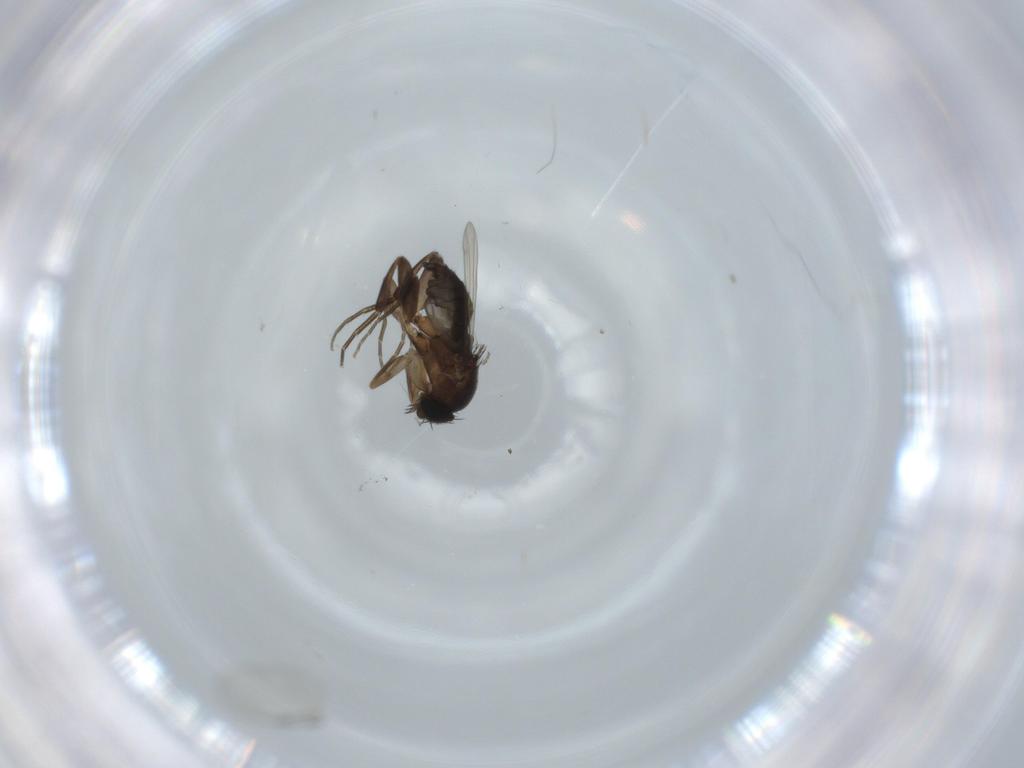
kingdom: Animalia
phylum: Arthropoda
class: Insecta
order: Diptera
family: Phoridae
